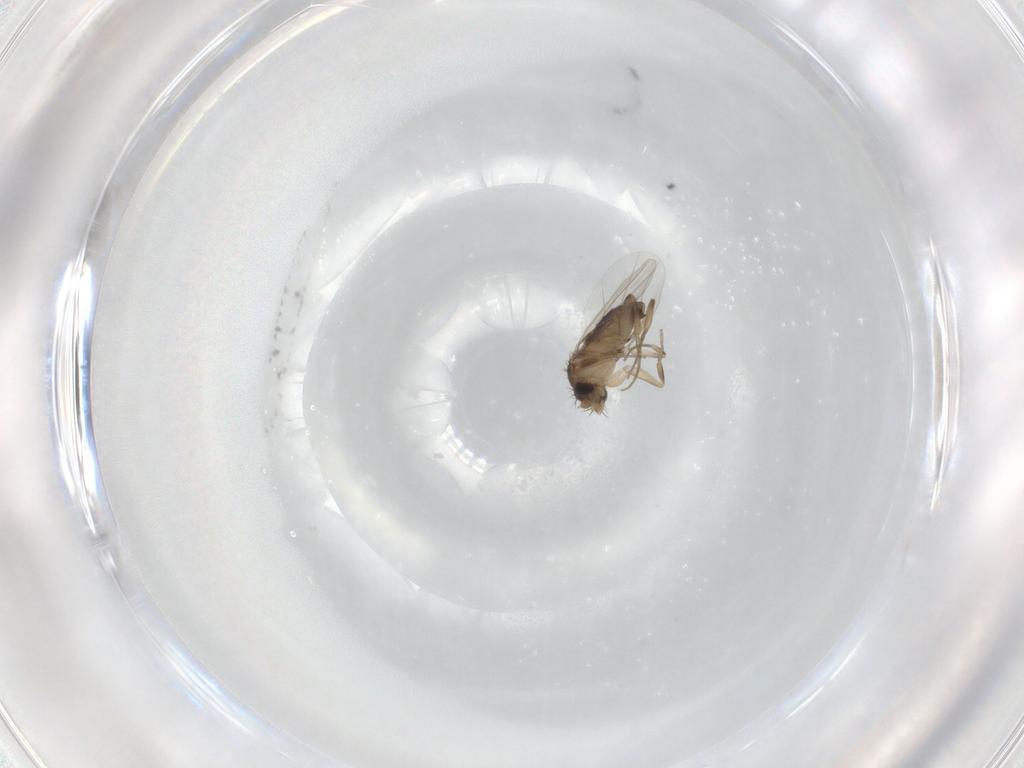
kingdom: Animalia
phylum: Arthropoda
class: Insecta
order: Diptera
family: Phoridae
